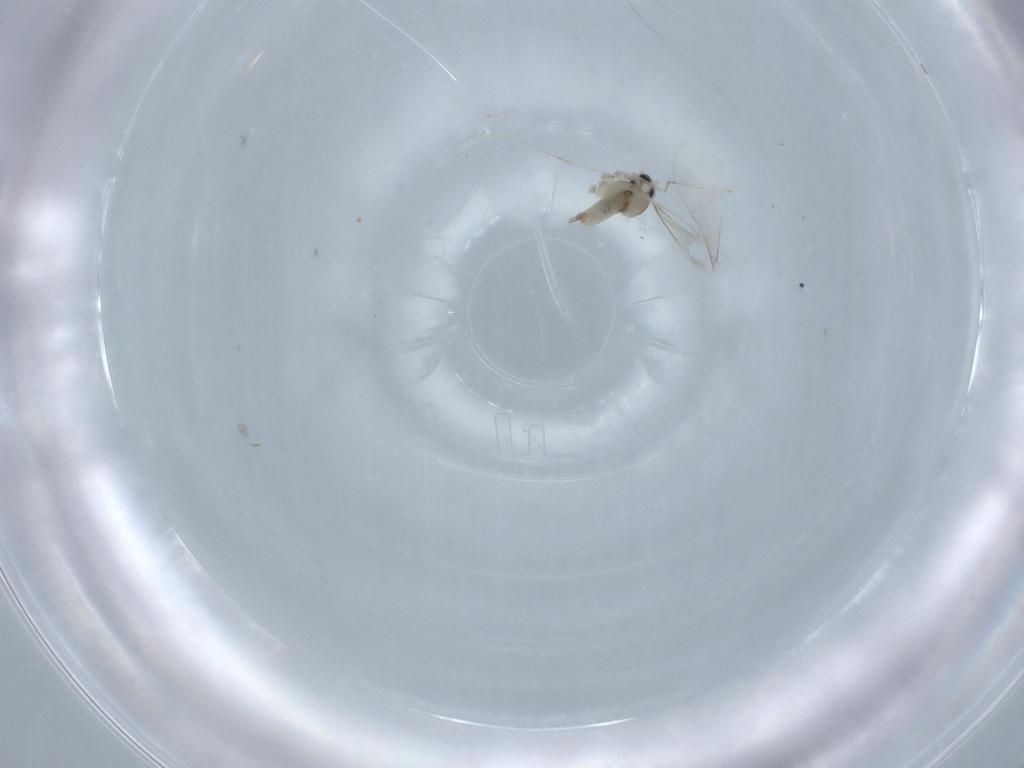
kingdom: Animalia
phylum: Arthropoda
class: Insecta
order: Diptera
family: Cecidomyiidae
